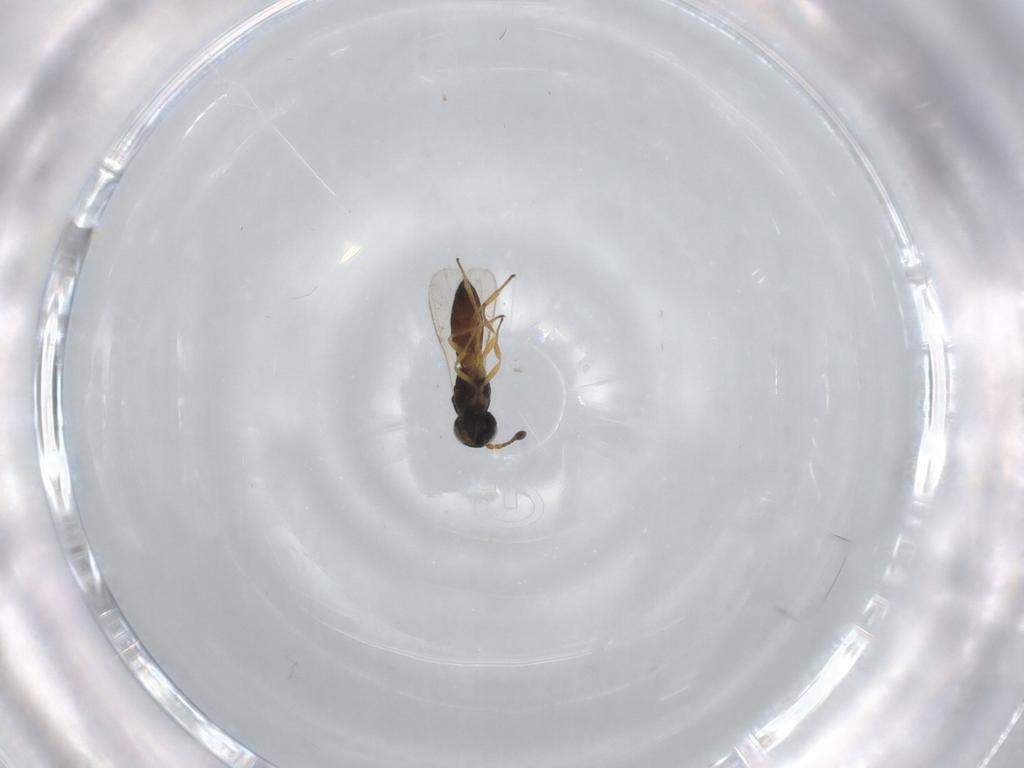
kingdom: Animalia
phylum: Arthropoda
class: Insecta
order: Hymenoptera
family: Scelionidae
